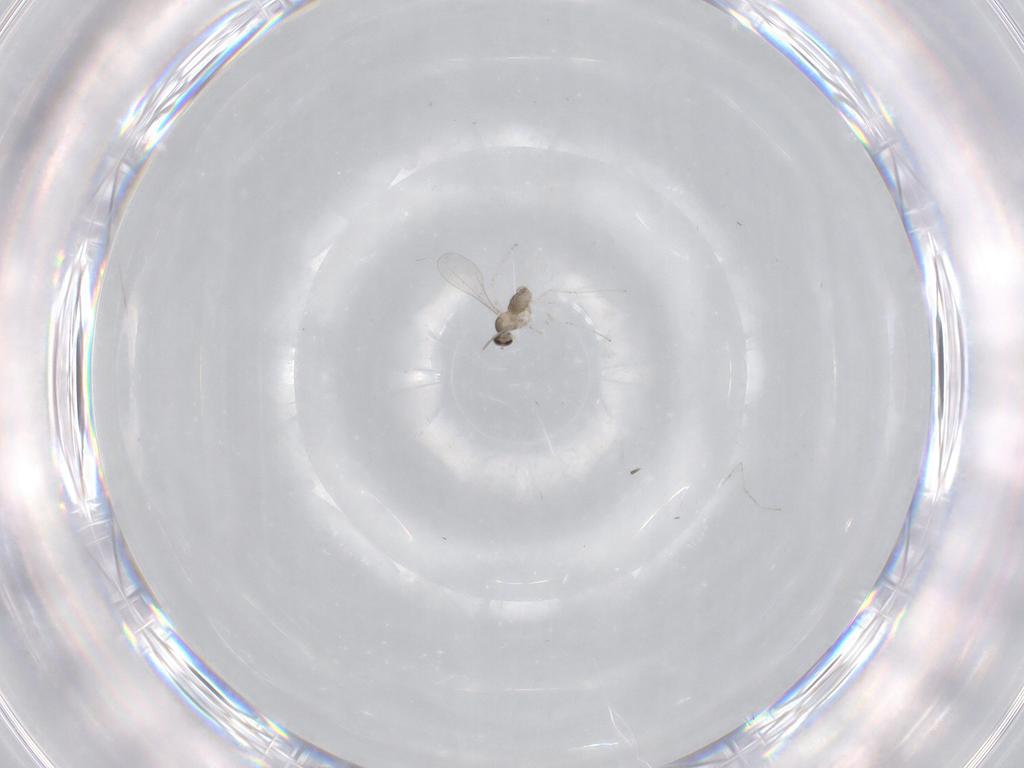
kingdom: Animalia
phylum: Arthropoda
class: Insecta
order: Diptera
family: Cecidomyiidae
